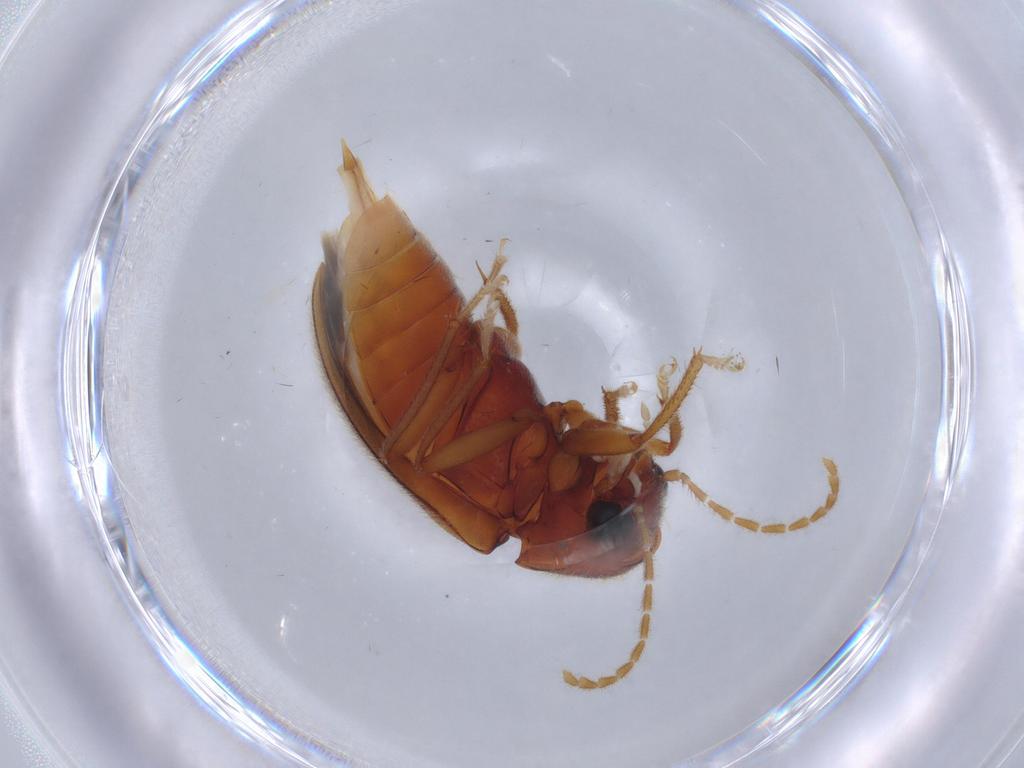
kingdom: Animalia
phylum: Arthropoda
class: Insecta
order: Coleoptera
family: Ptilodactylidae
